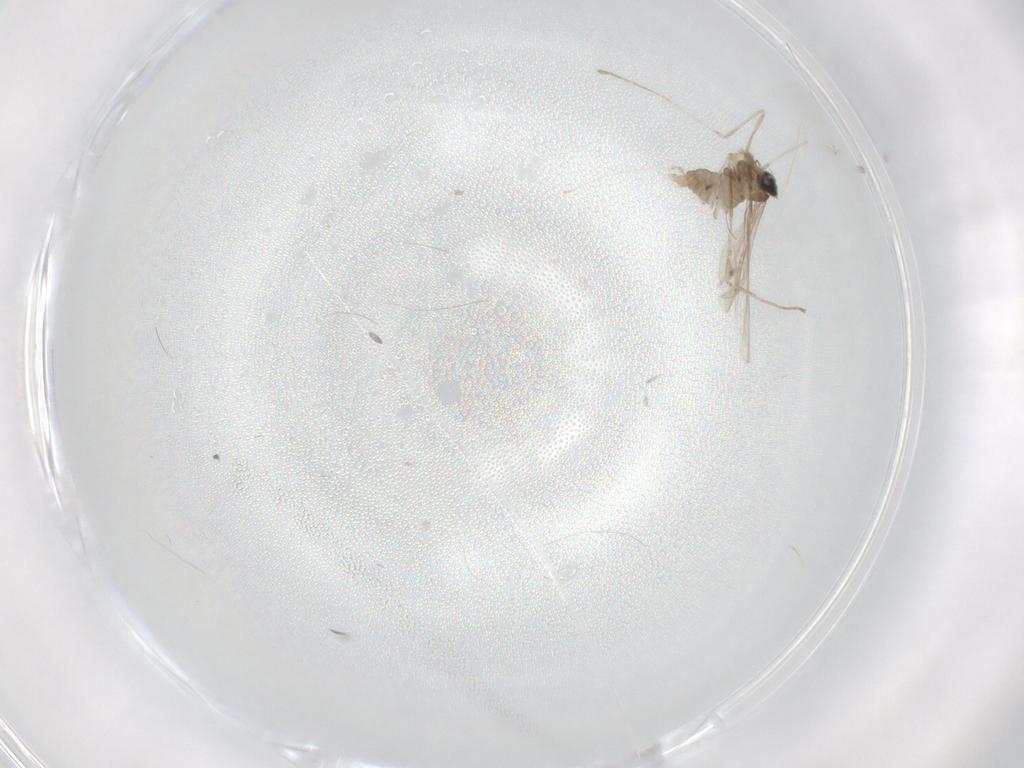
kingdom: Animalia
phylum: Arthropoda
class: Insecta
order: Diptera
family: Cecidomyiidae
